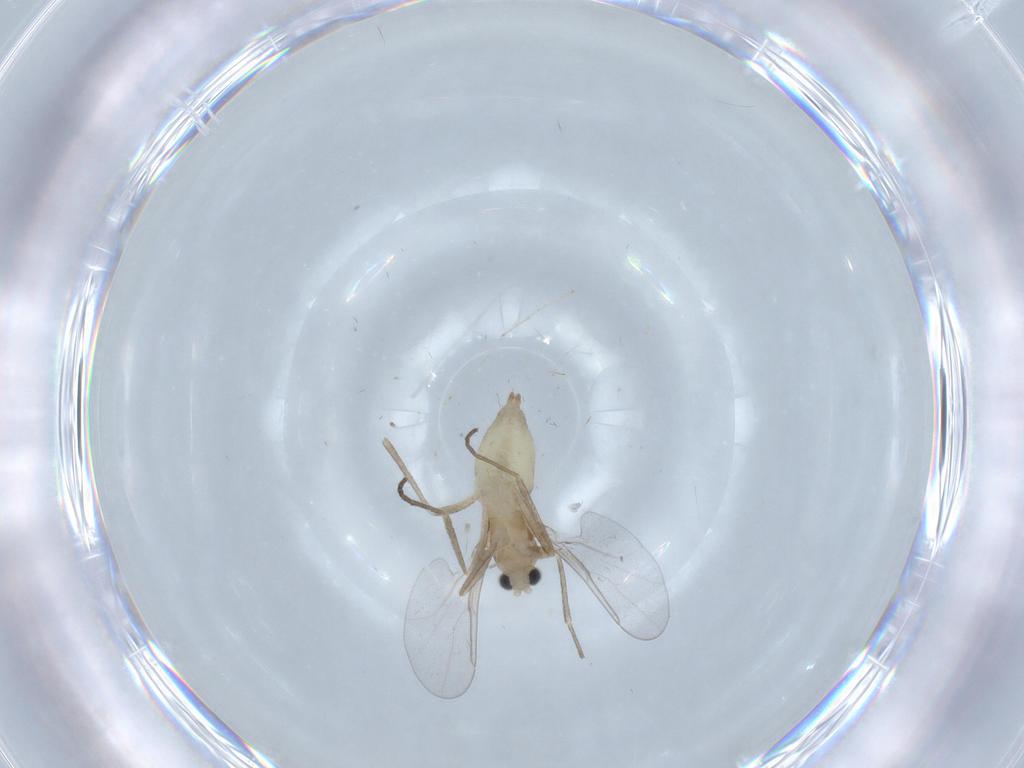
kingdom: Animalia
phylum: Arthropoda
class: Insecta
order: Diptera
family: Cecidomyiidae
